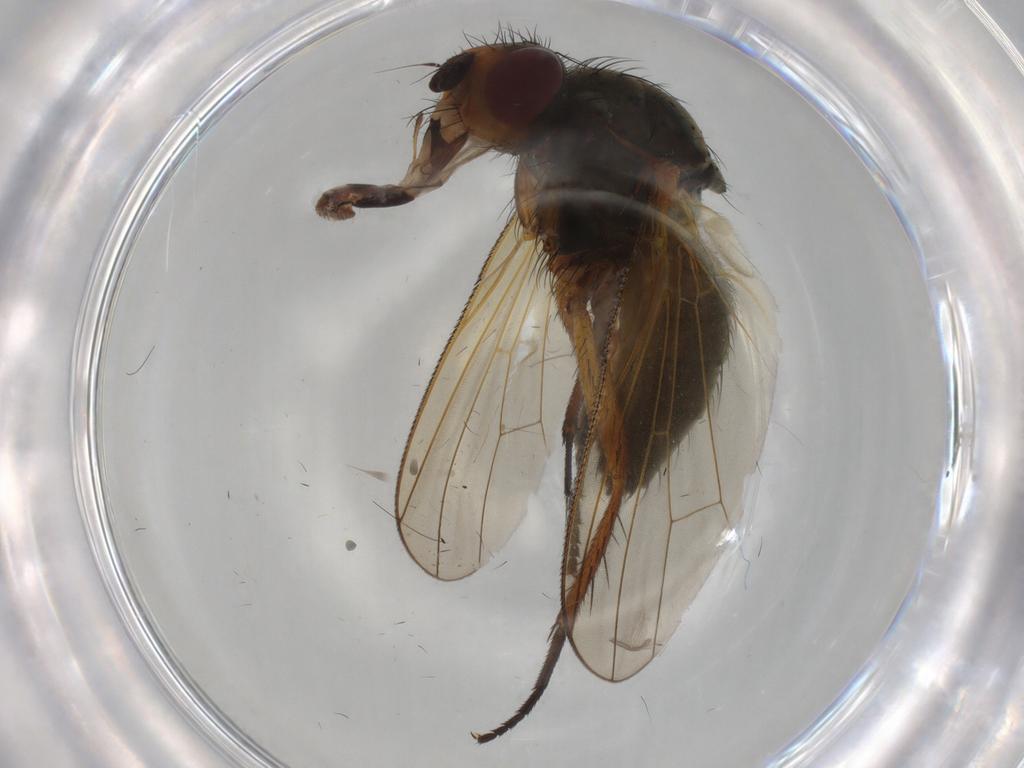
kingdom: Animalia
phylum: Arthropoda
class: Insecta
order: Diptera
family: Anthomyiidae
